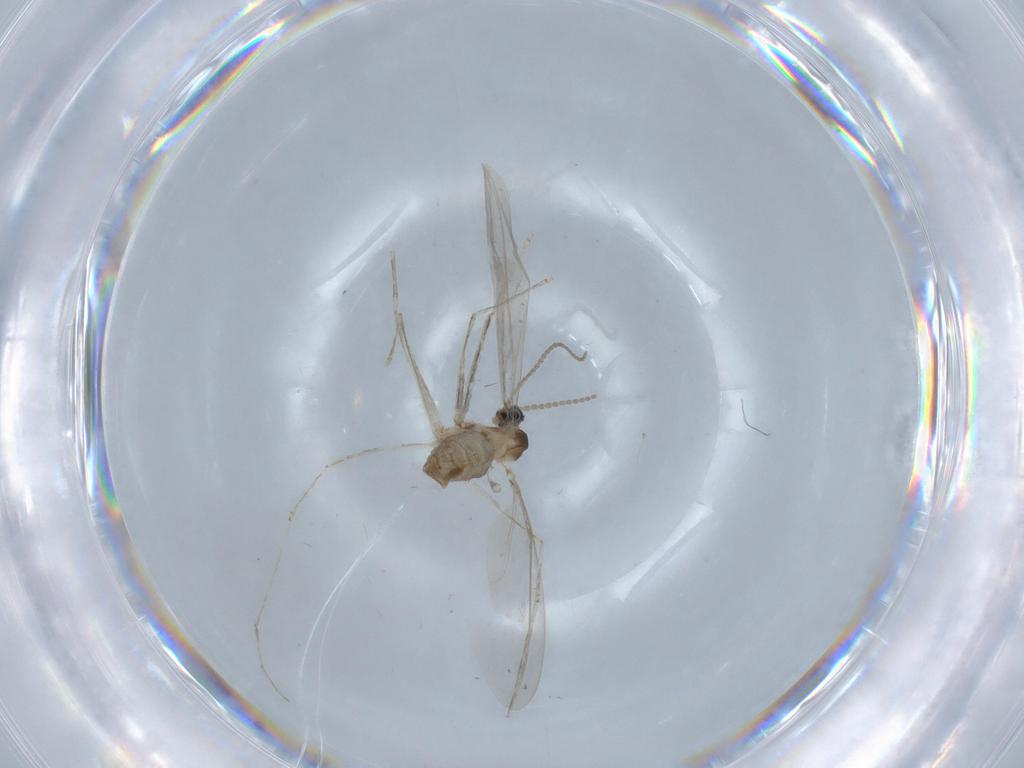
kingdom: Animalia
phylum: Arthropoda
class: Insecta
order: Diptera
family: Cecidomyiidae
